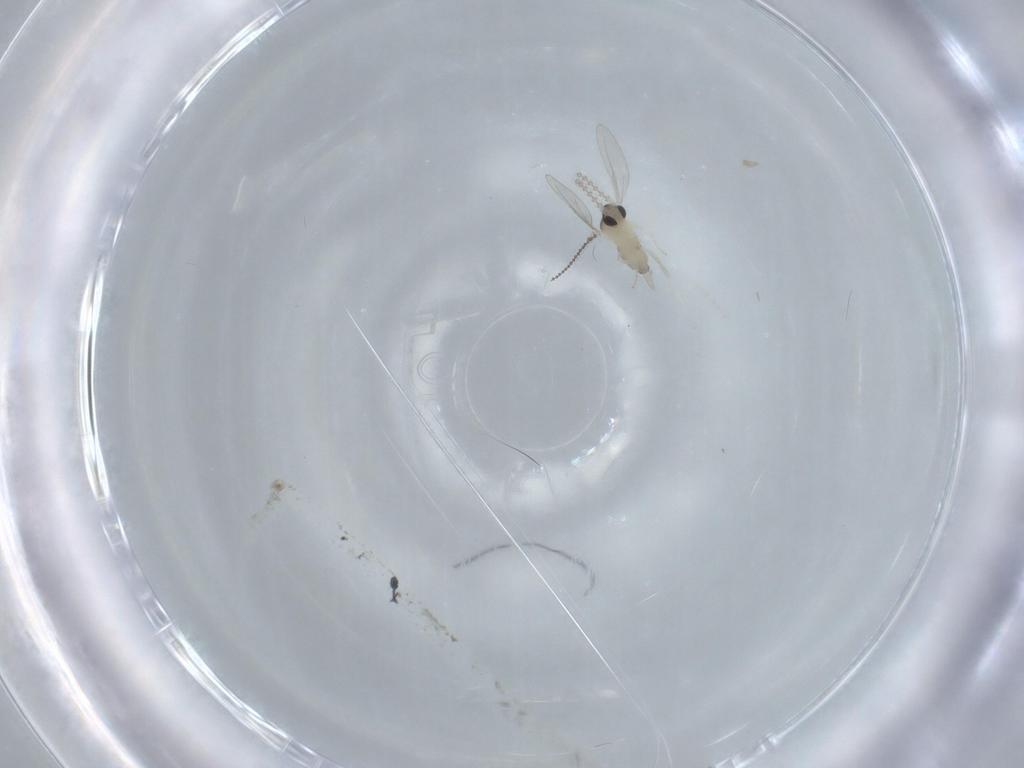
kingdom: Animalia
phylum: Arthropoda
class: Insecta
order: Diptera
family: Cecidomyiidae
